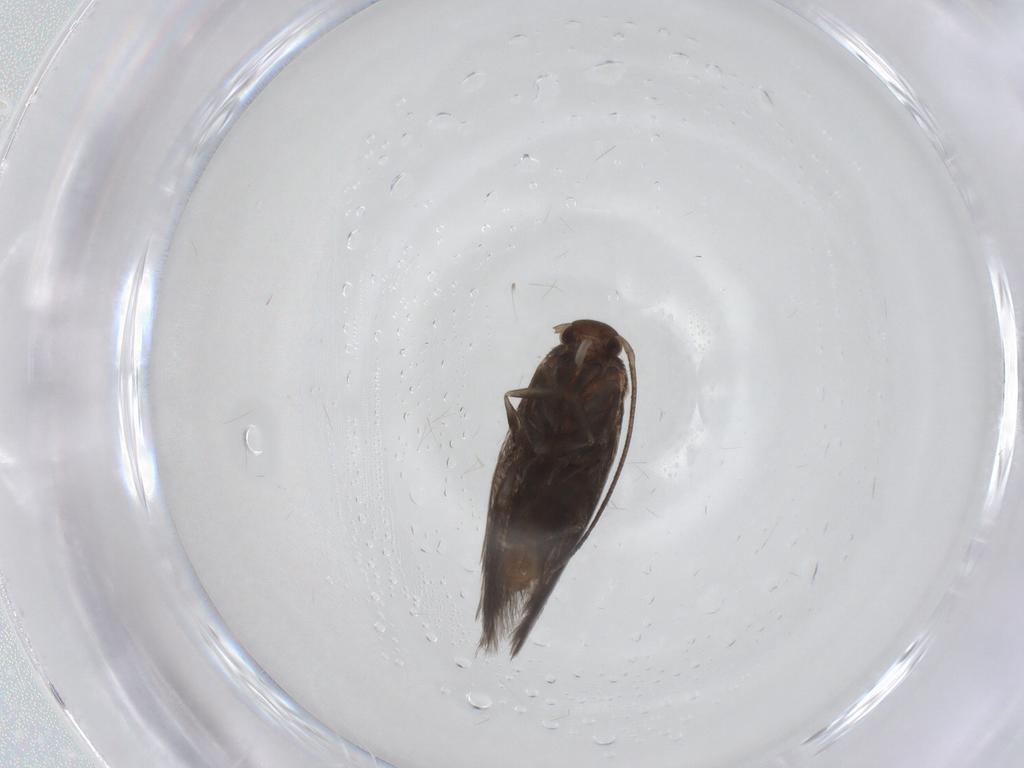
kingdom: Animalia
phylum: Arthropoda
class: Insecta
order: Lepidoptera
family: Elachistidae
